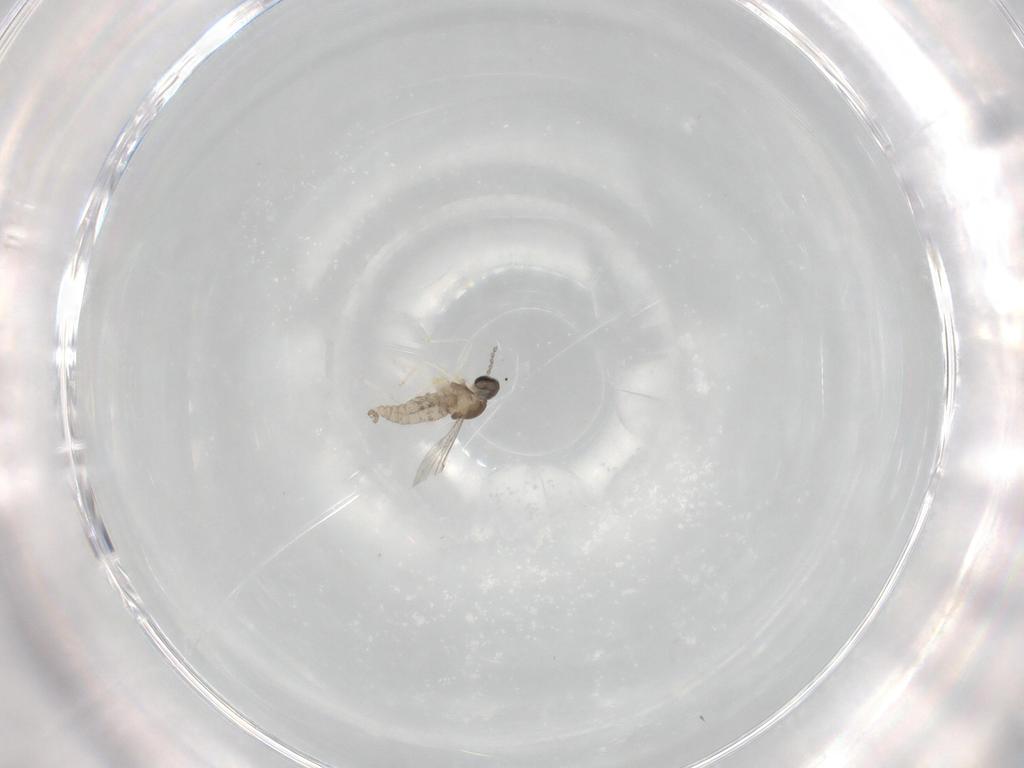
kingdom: Animalia
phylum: Arthropoda
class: Insecta
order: Diptera
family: Cecidomyiidae
